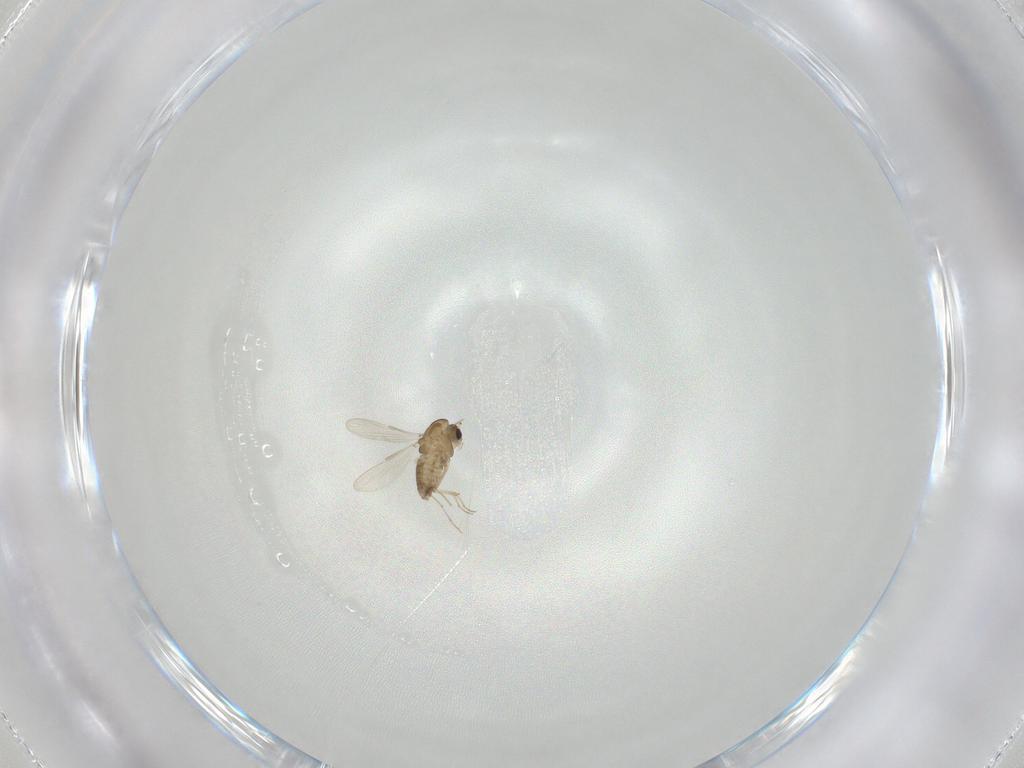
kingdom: Animalia
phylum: Arthropoda
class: Insecta
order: Diptera
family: Chironomidae
